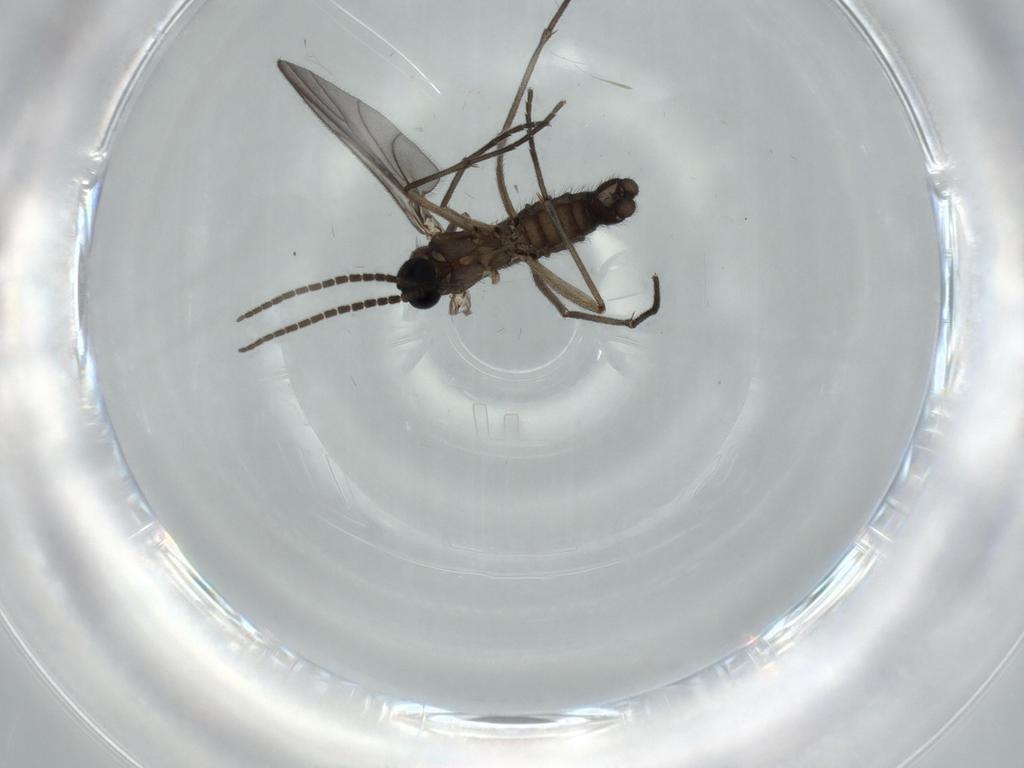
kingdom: Animalia
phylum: Arthropoda
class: Insecta
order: Diptera
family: Sciaridae
